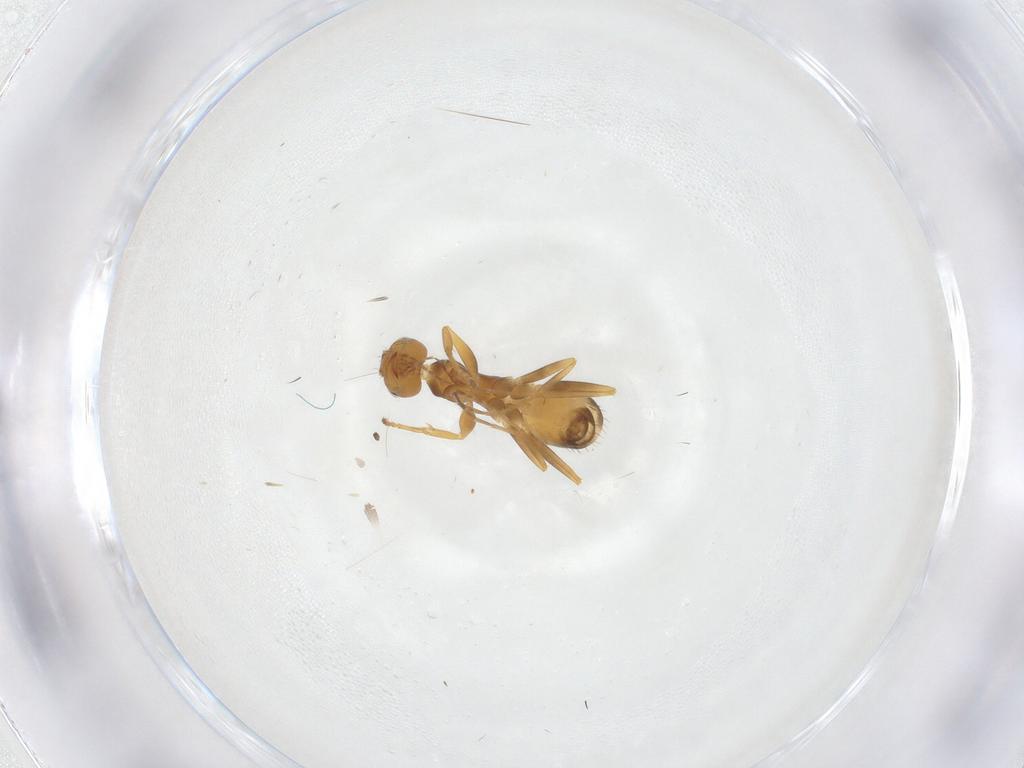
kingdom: Animalia
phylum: Arthropoda
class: Insecta
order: Hymenoptera
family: Formicidae
